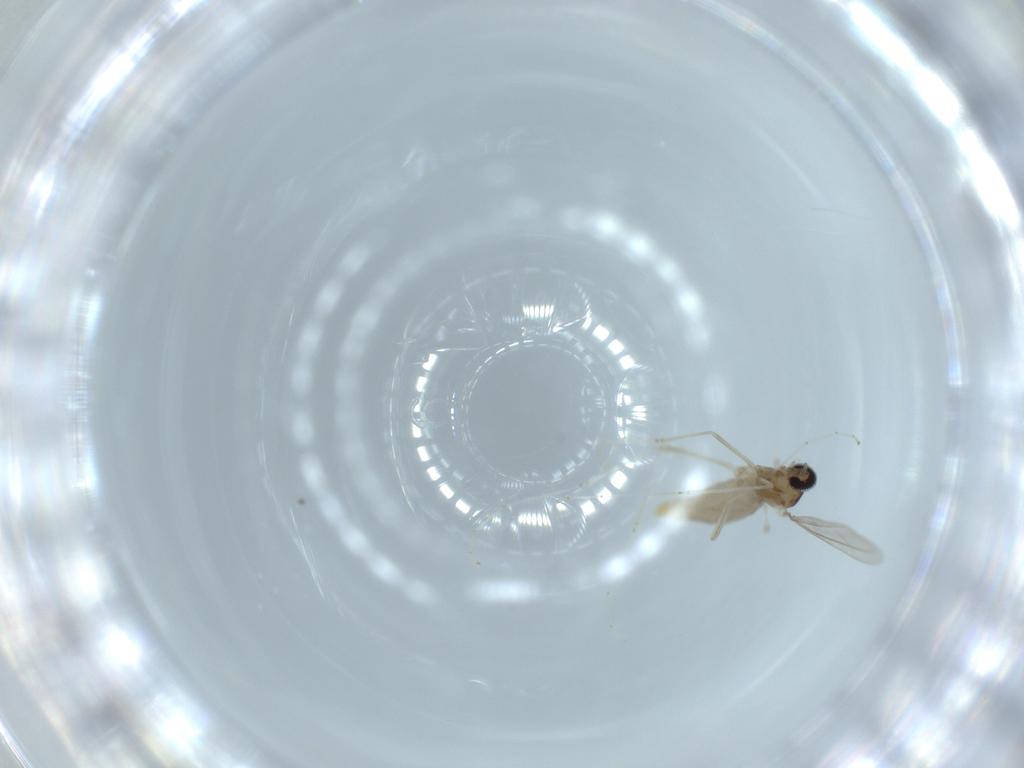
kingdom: Animalia
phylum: Arthropoda
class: Insecta
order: Diptera
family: Cecidomyiidae
